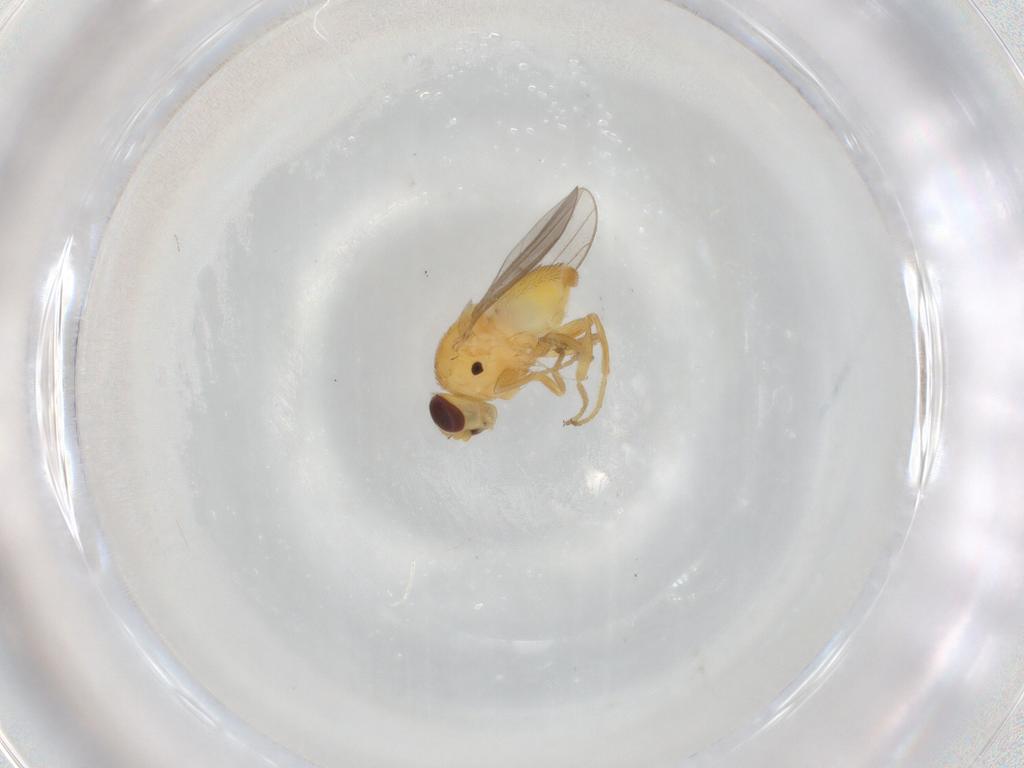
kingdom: Animalia
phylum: Arthropoda
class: Insecta
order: Diptera
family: Chloropidae
